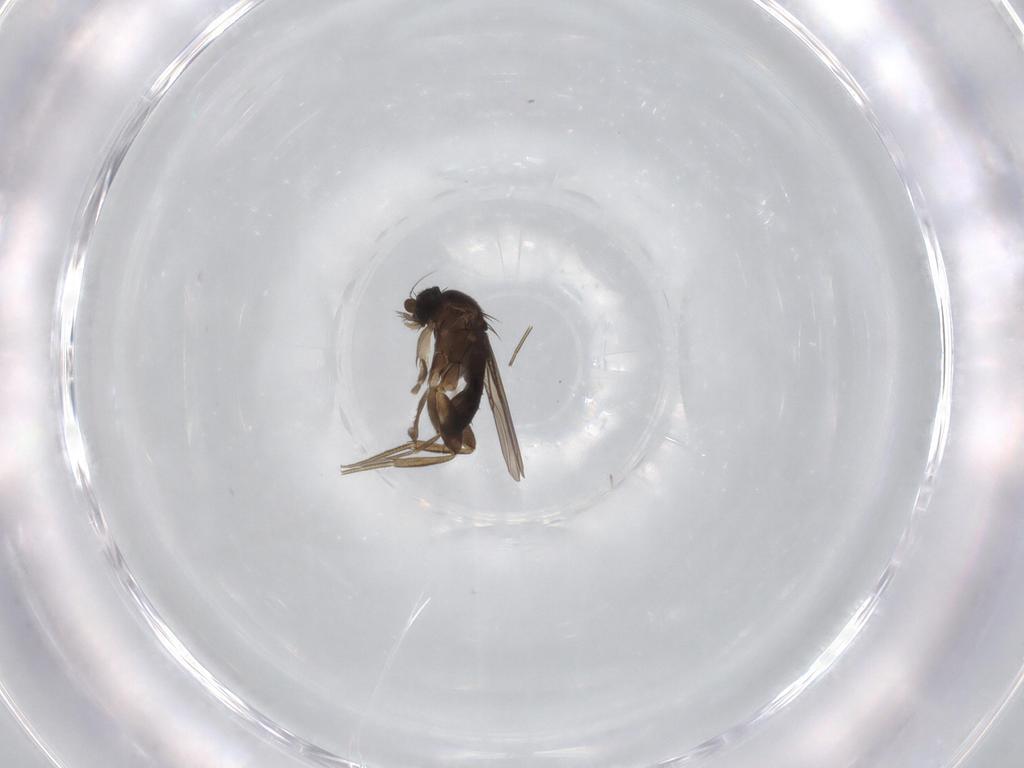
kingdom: Animalia
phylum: Arthropoda
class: Insecta
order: Diptera
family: Phoridae
